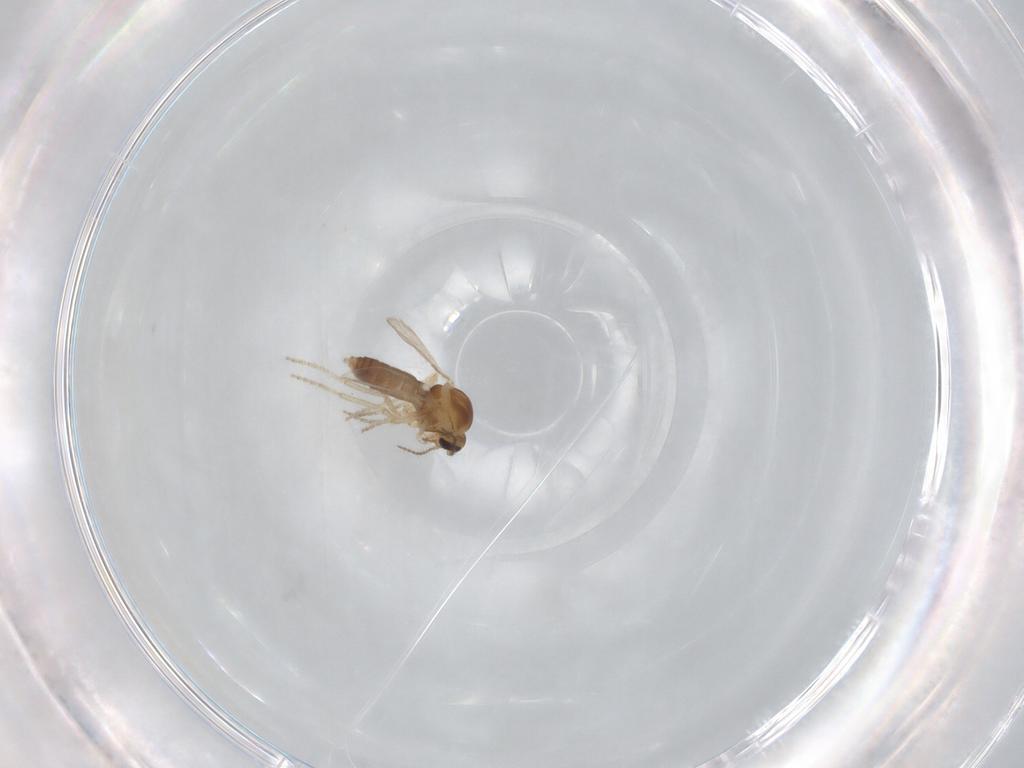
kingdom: Animalia
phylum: Arthropoda
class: Insecta
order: Diptera
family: Ceratopogonidae
